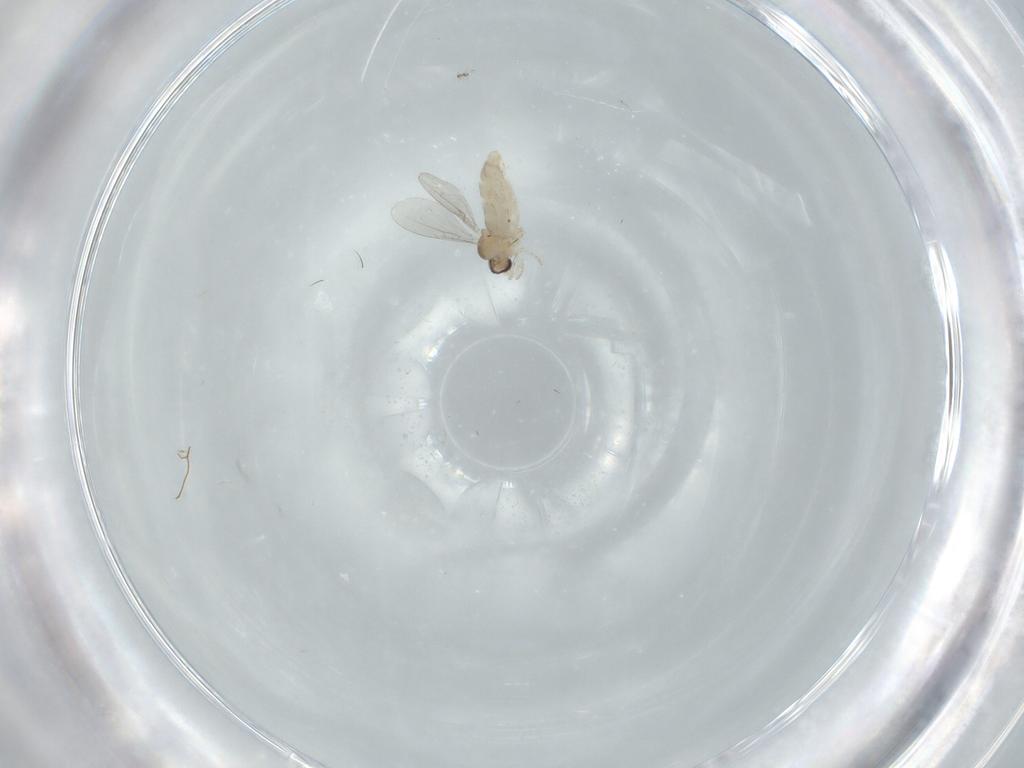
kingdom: Animalia
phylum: Arthropoda
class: Insecta
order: Diptera
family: Cecidomyiidae
